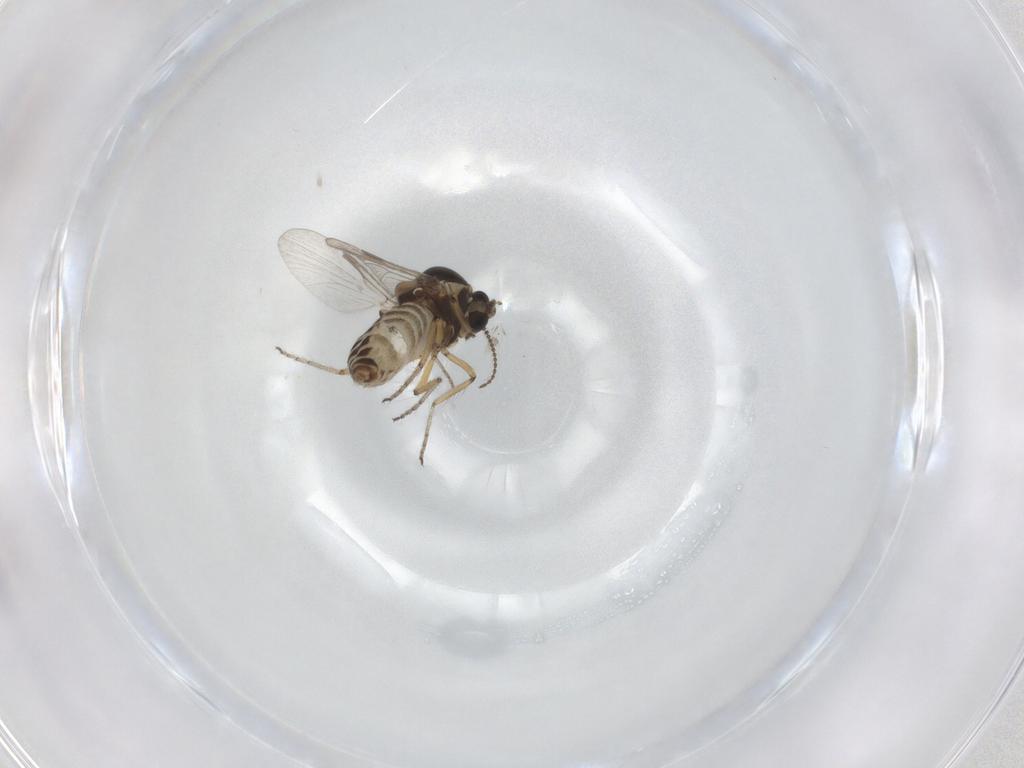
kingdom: Animalia
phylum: Arthropoda
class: Insecta
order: Diptera
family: Ceratopogonidae
